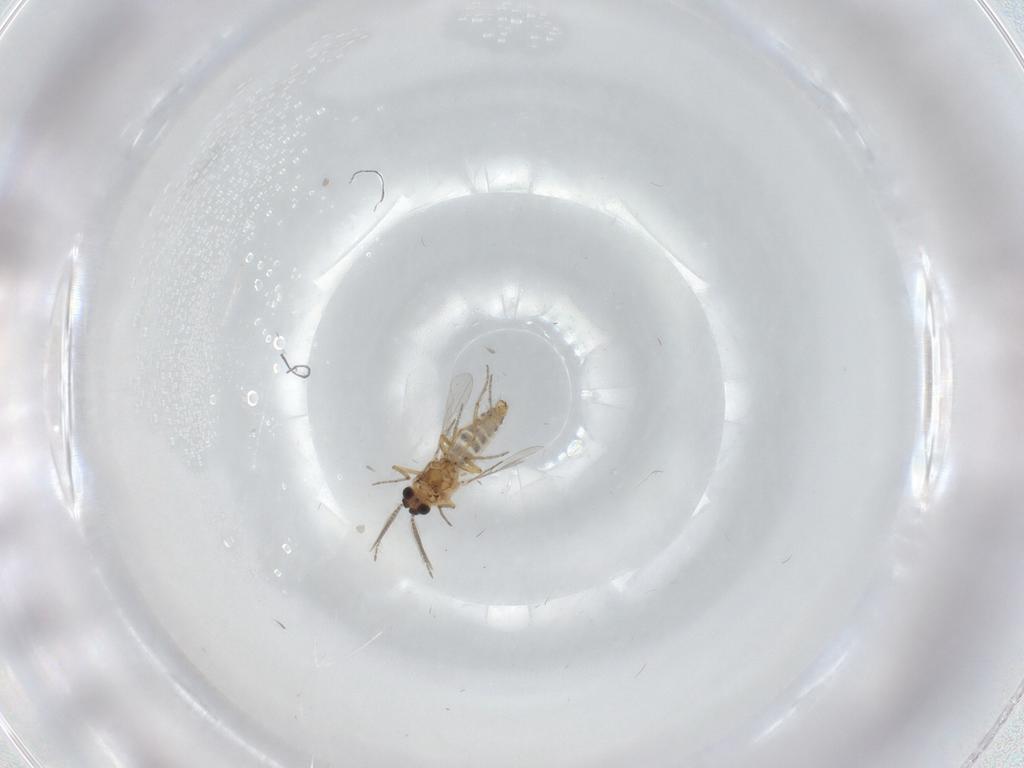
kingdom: Animalia
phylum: Arthropoda
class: Insecta
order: Diptera
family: Ceratopogonidae
